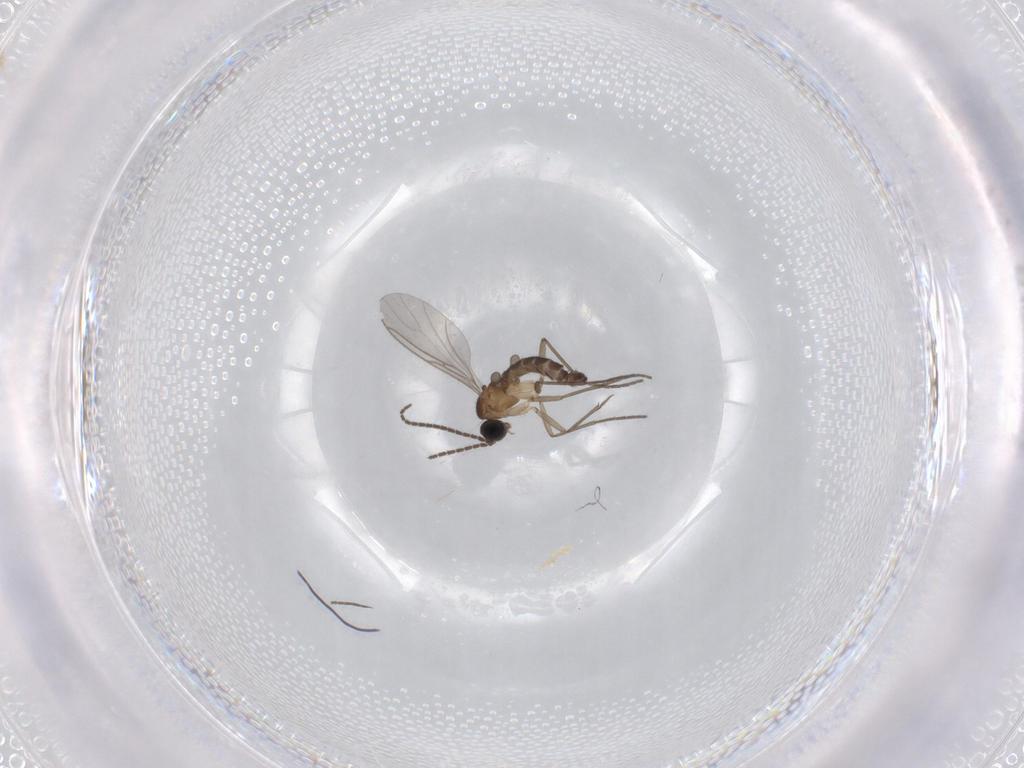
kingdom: Animalia
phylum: Arthropoda
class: Insecta
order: Diptera
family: Sciaridae
